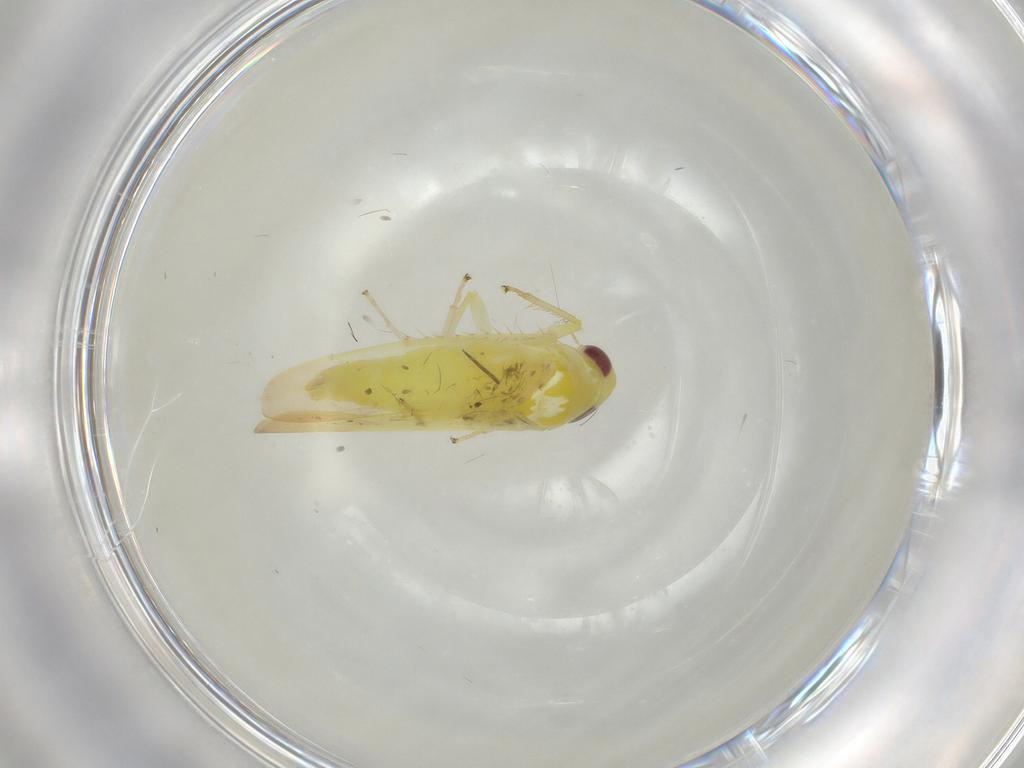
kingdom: Animalia
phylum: Arthropoda
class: Insecta
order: Hemiptera
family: Cicadellidae
